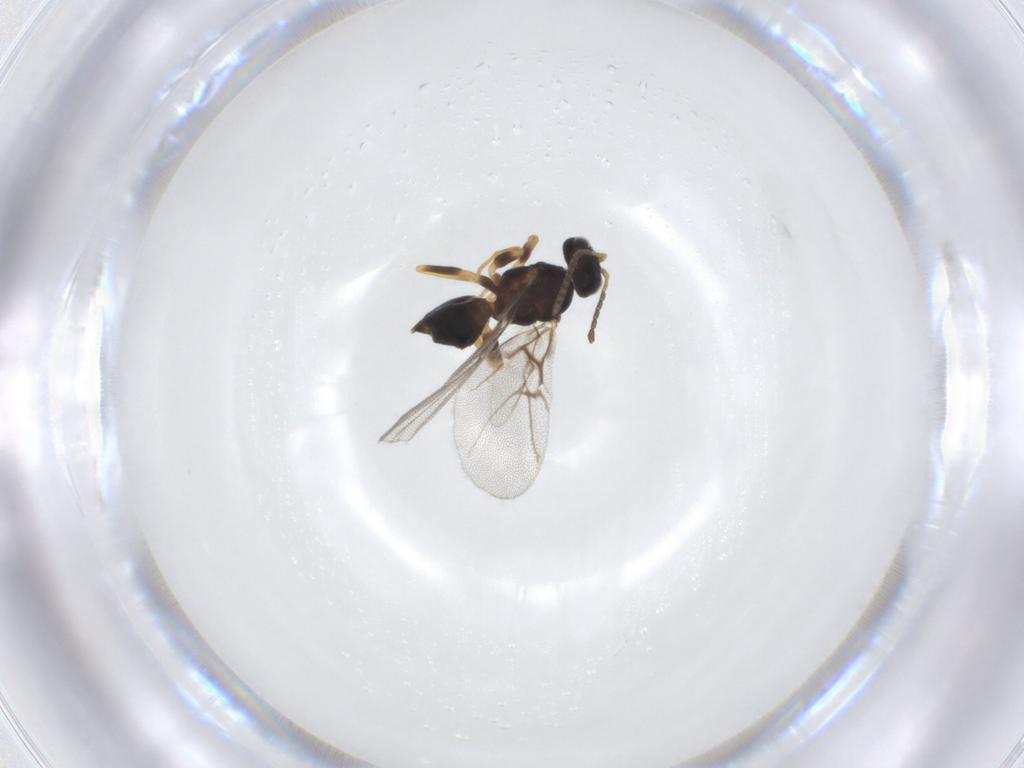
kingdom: Animalia
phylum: Arthropoda
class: Insecta
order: Hymenoptera
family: Cynipidae
